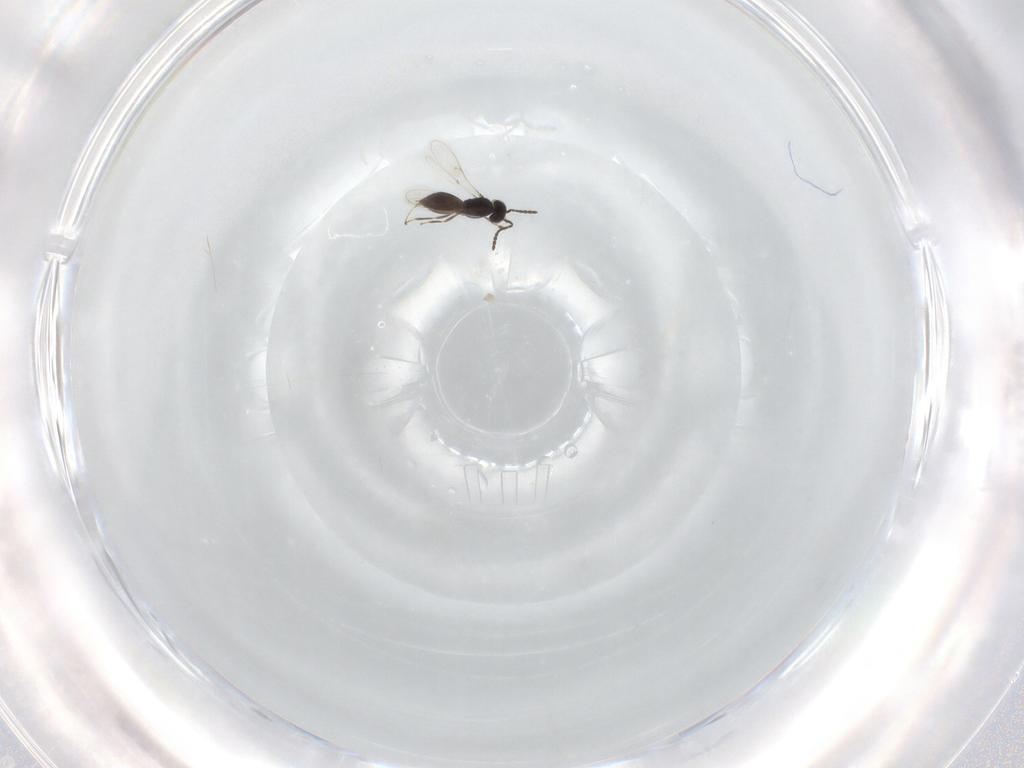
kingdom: Animalia
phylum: Arthropoda
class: Insecta
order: Hymenoptera
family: Scelionidae
